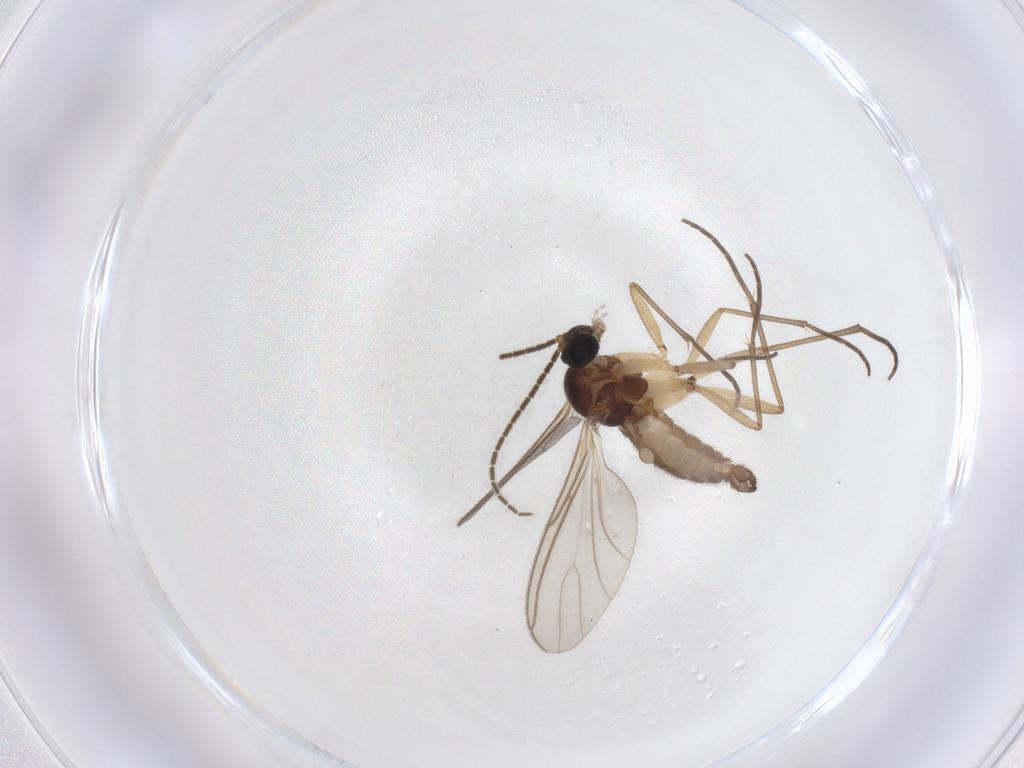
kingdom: Animalia
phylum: Arthropoda
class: Insecta
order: Diptera
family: Sciaridae
